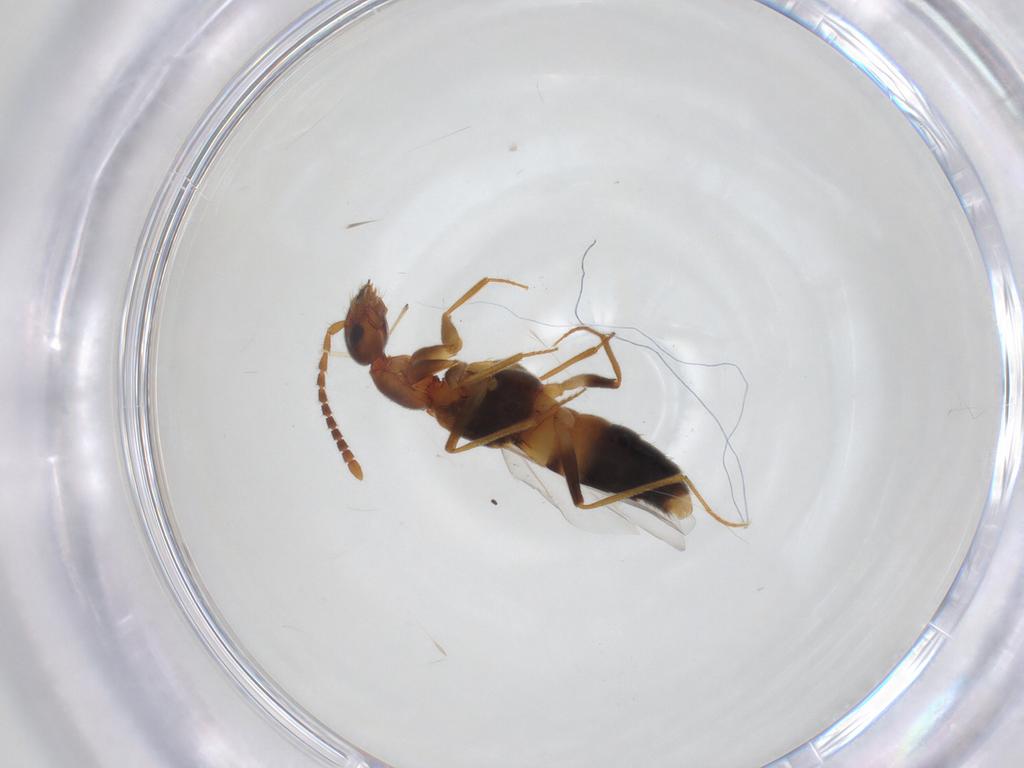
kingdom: Animalia
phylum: Arthropoda
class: Insecta
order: Coleoptera
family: Staphylinidae
